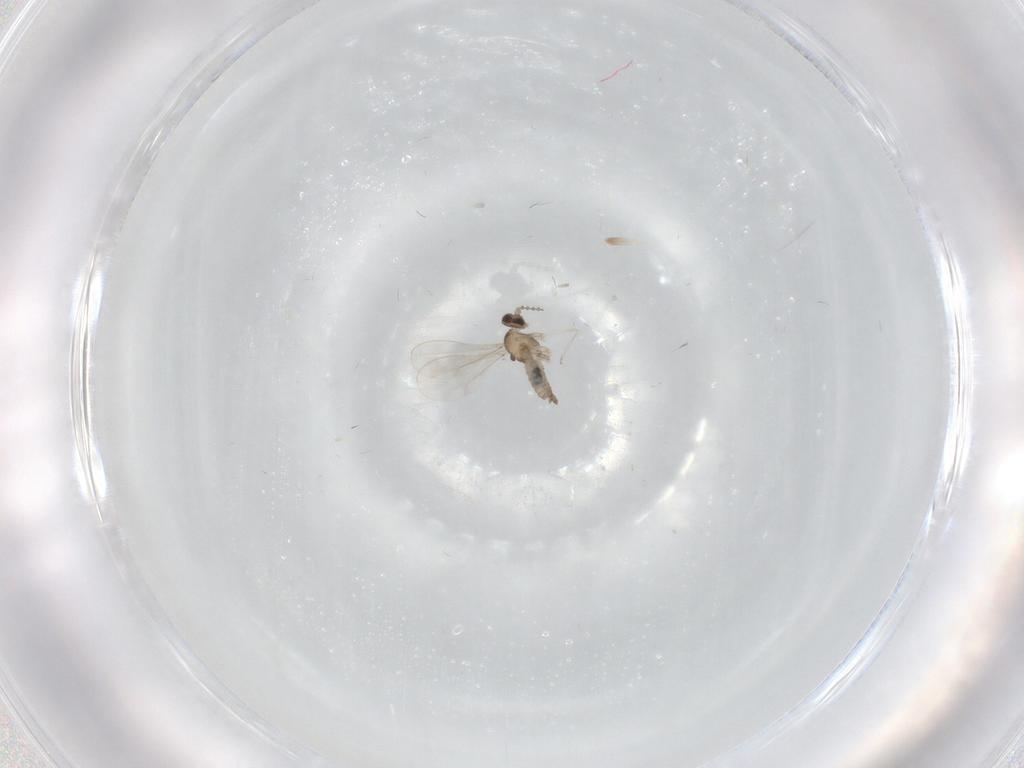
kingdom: Animalia
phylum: Arthropoda
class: Insecta
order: Diptera
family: Cecidomyiidae
